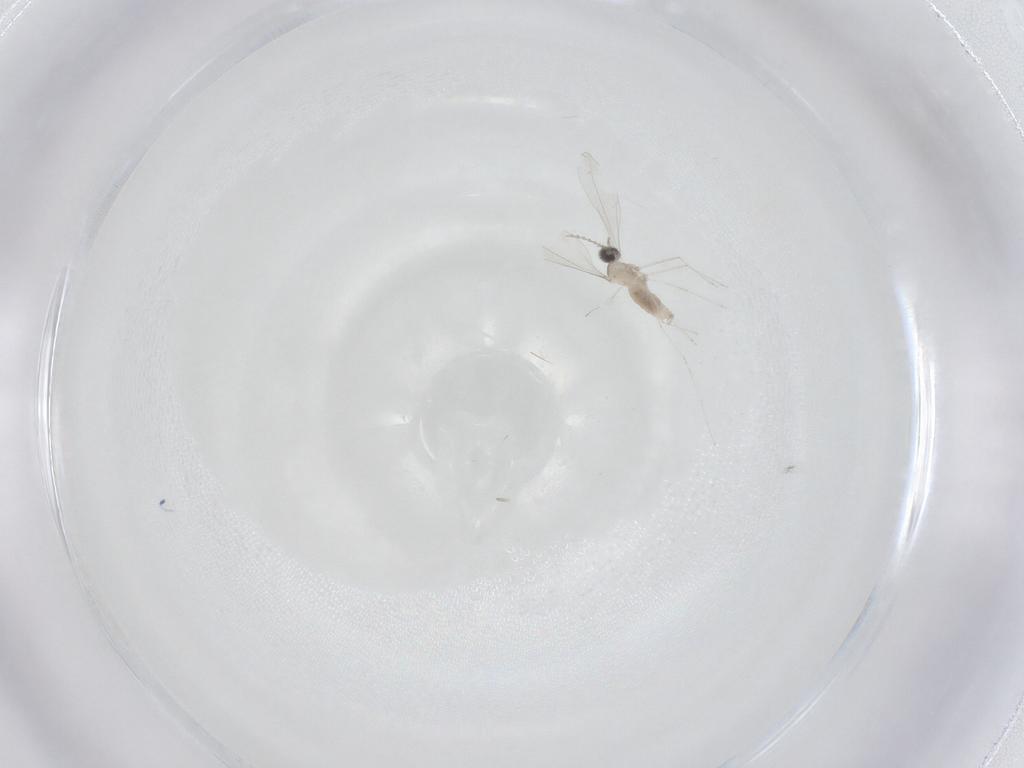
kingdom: Animalia
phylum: Arthropoda
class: Insecta
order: Diptera
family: Cecidomyiidae
